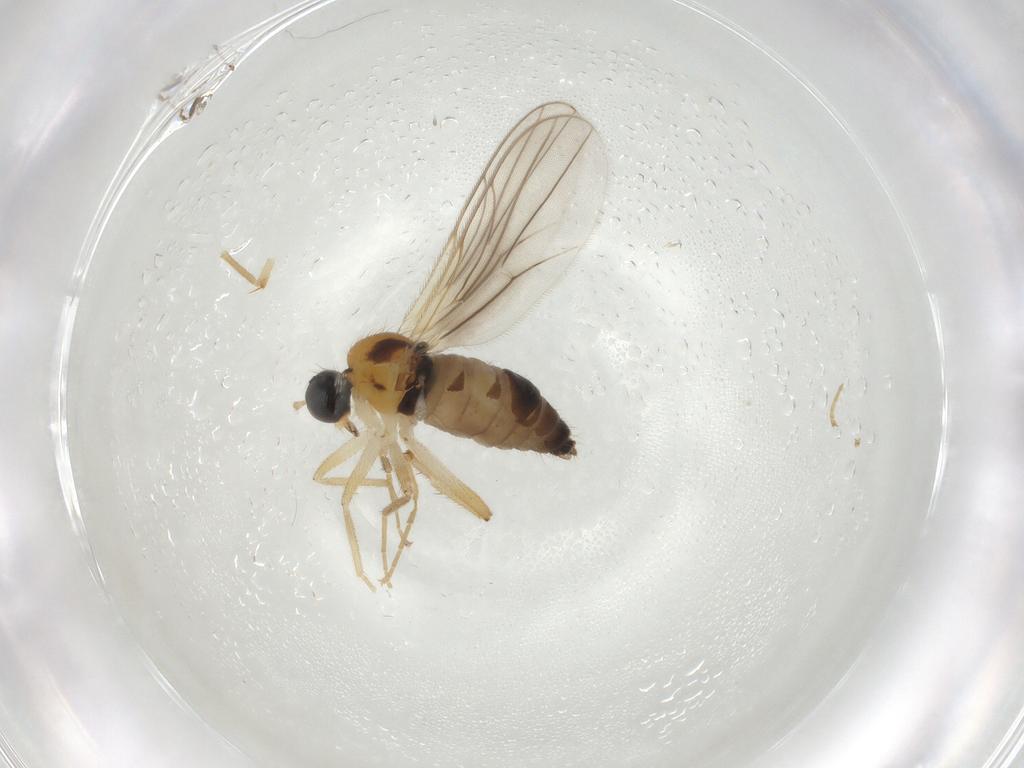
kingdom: Animalia
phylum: Arthropoda
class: Insecta
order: Diptera
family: Hybotidae
